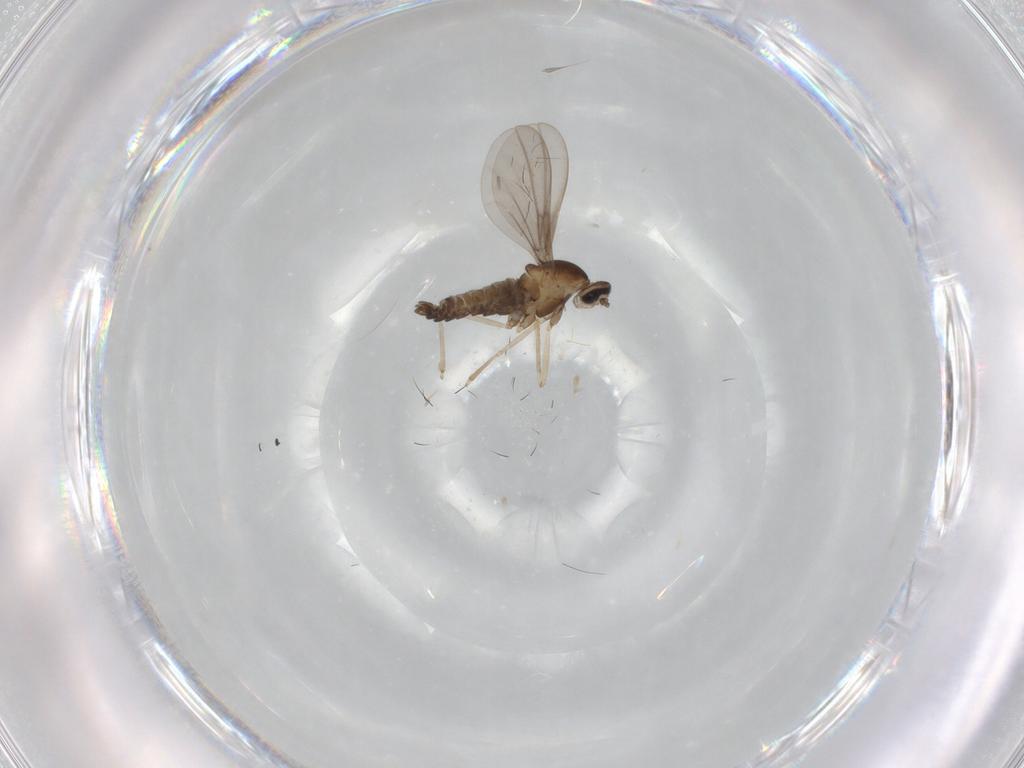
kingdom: Animalia
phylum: Arthropoda
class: Insecta
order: Diptera
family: Cecidomyiidae
